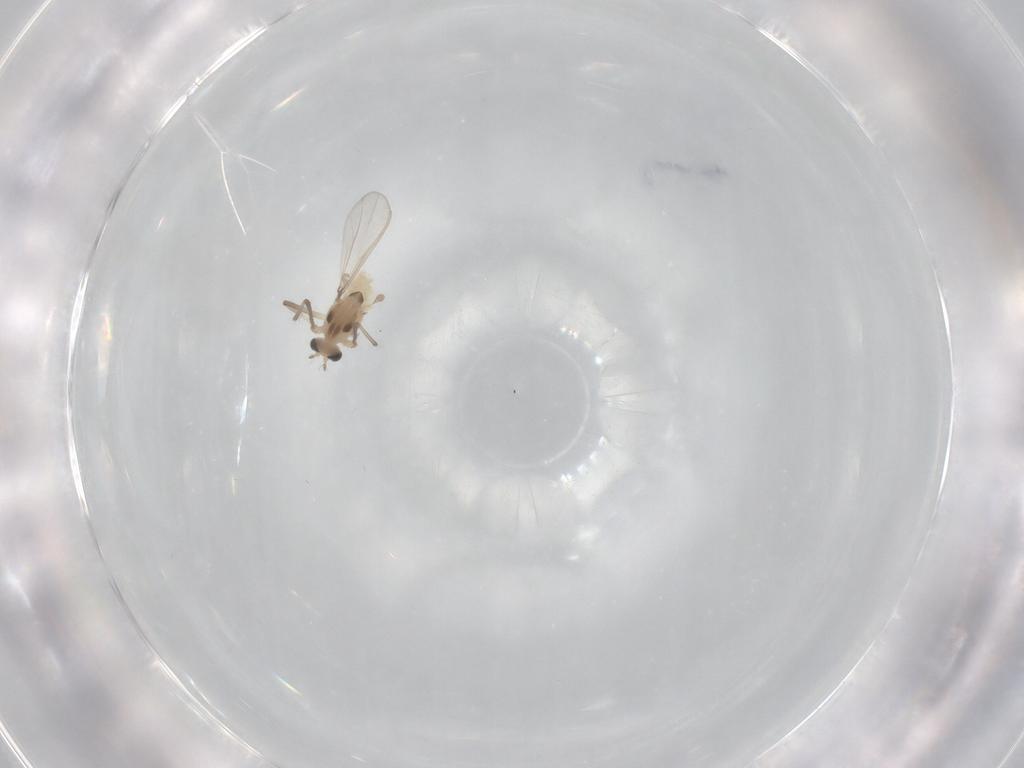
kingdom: Animalia
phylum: Arthropoda
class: Insecta
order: Diptera
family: Chironomidae
